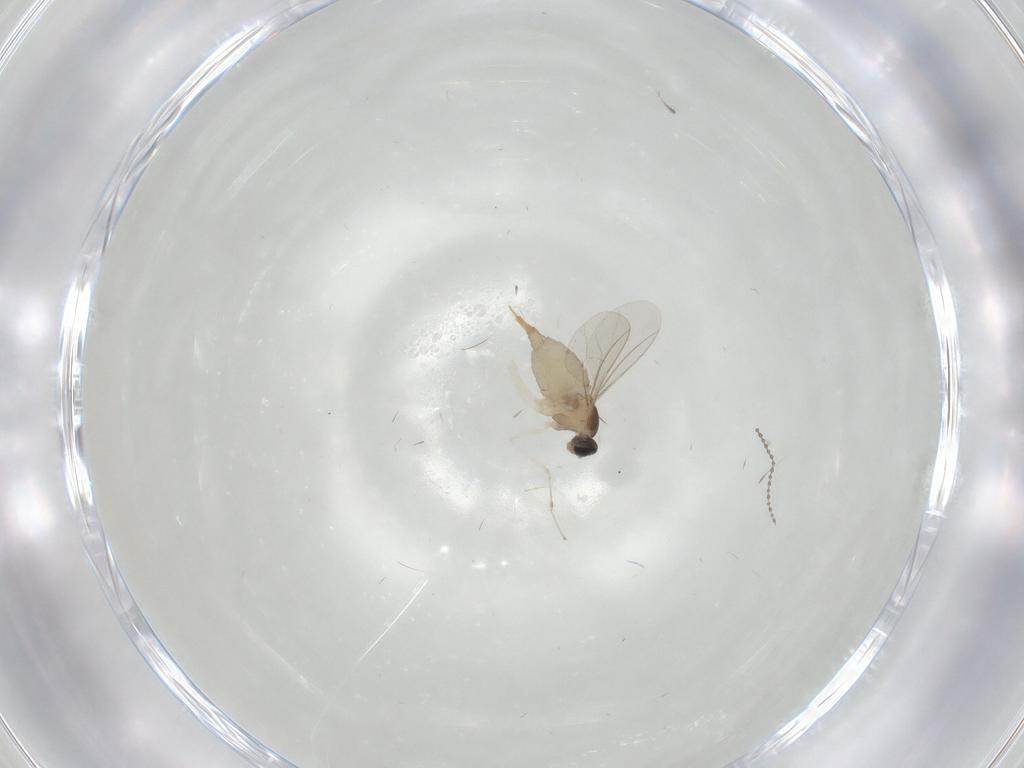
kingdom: Animalia
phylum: Arthropoda
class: Insecta
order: Diptera
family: Cecidomyiidae
